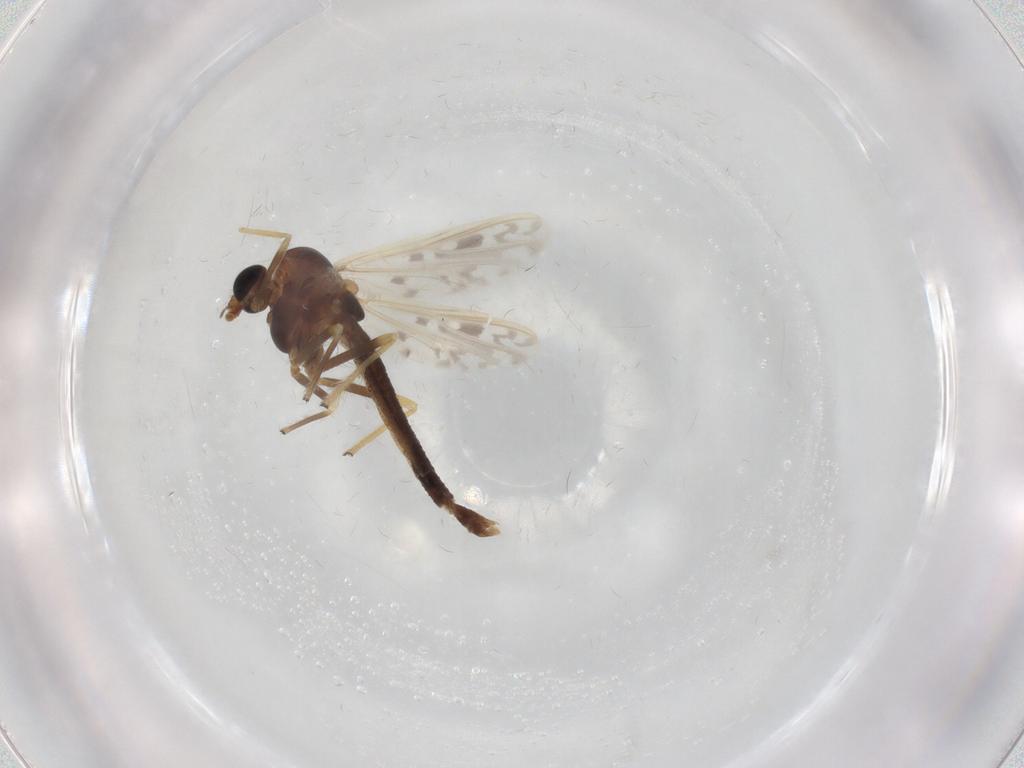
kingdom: Animalia
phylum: Arthropoda
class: Insecta
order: Diptera
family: Chironomidae
